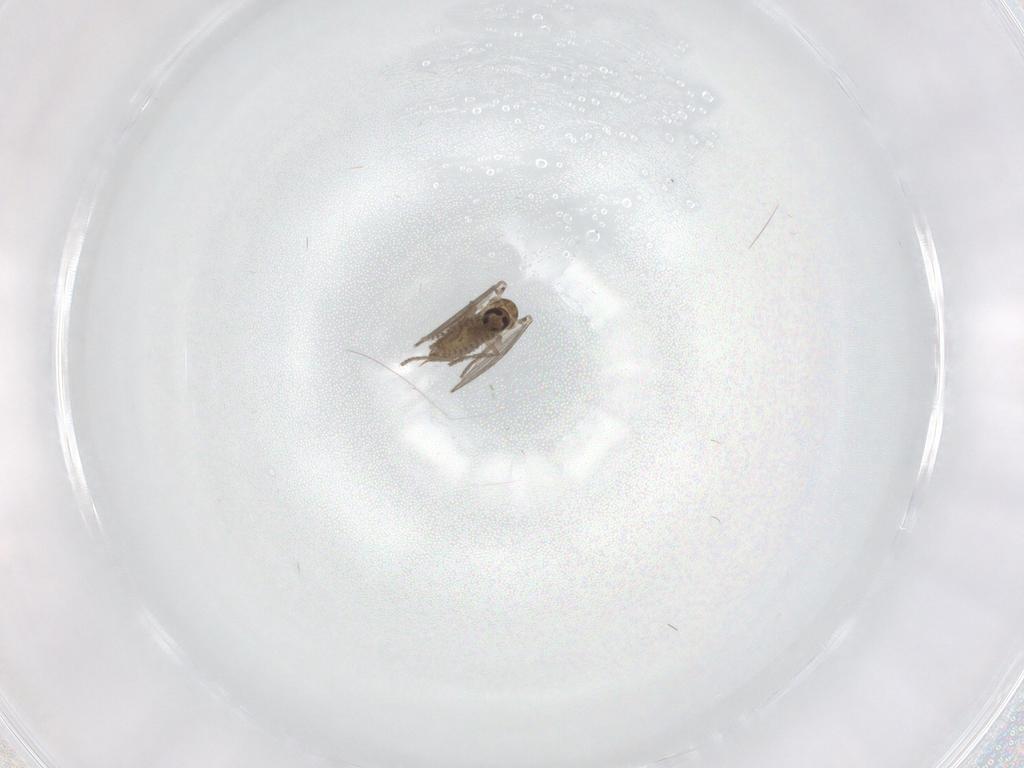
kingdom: Animalia
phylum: Arthropoda
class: Insecta
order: Diptera
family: Psychodidae
